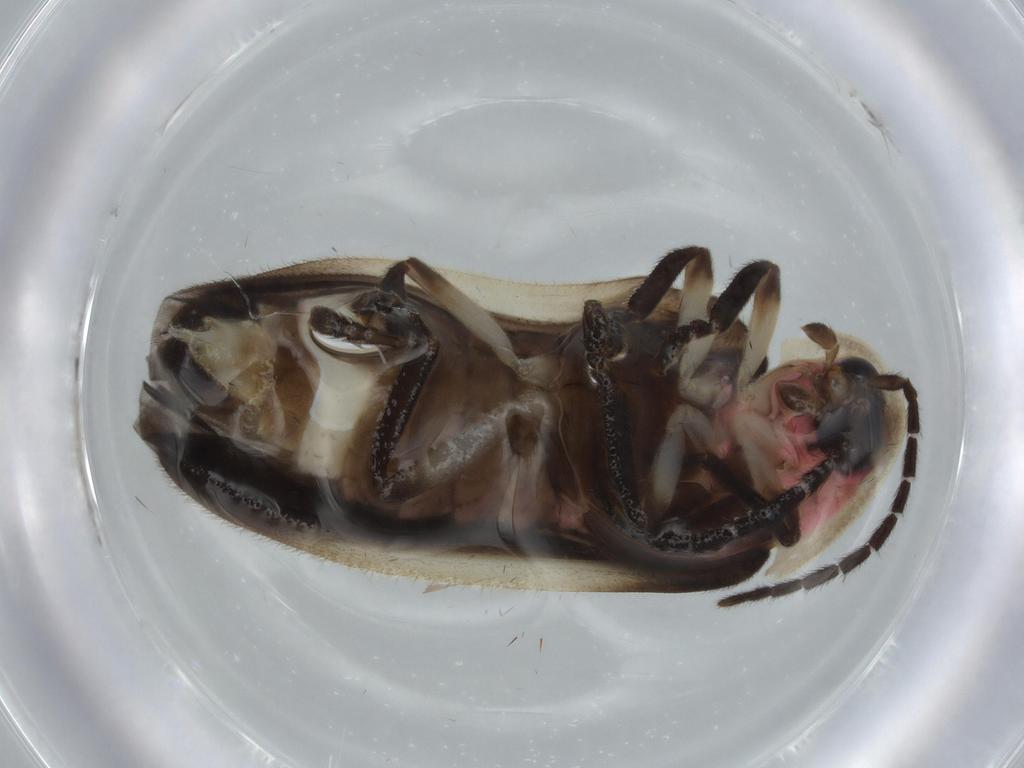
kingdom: Animalia
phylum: Arthropoda
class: Insecta
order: Coleoptera
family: Lampyridae
